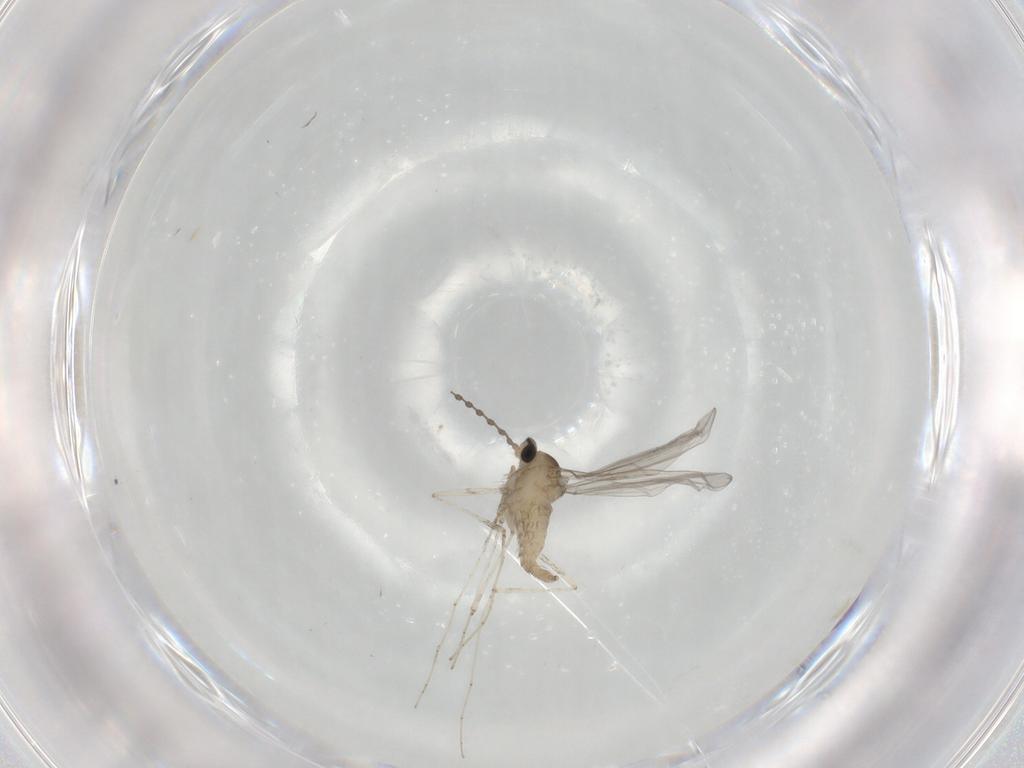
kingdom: Animalia
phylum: Arthropoda
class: Insecta
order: Diptera
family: Cecidomyiidae
